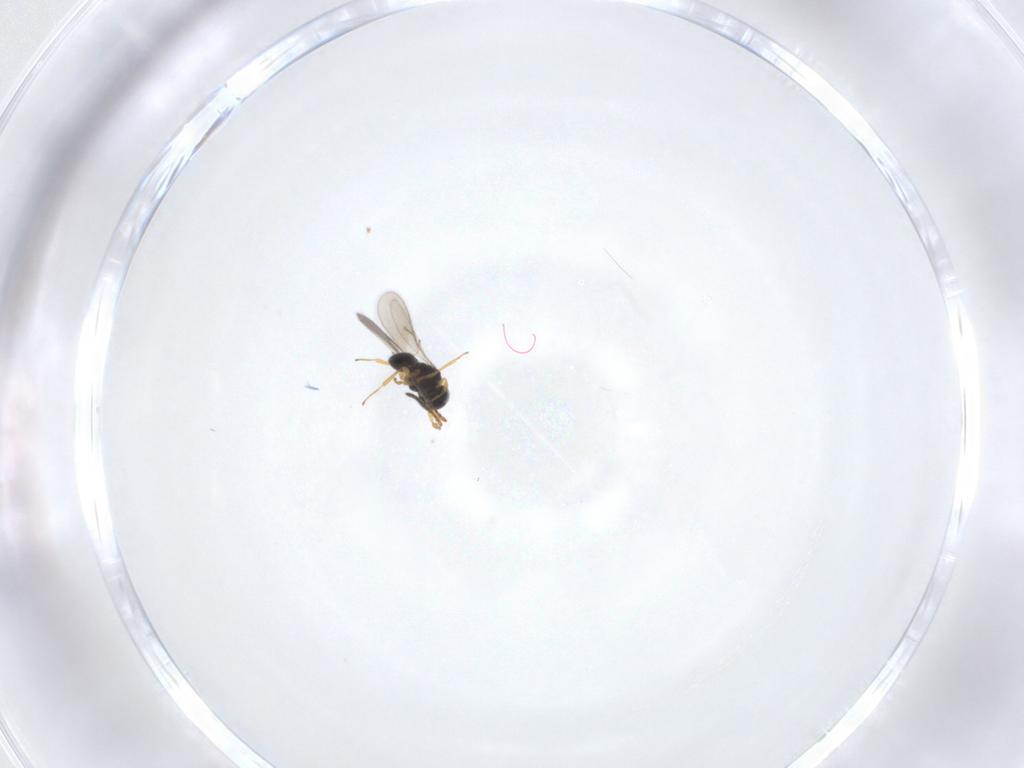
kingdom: Animalia
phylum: Arthropoda
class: Insecta
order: Hymenoptera
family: Scelionidae
